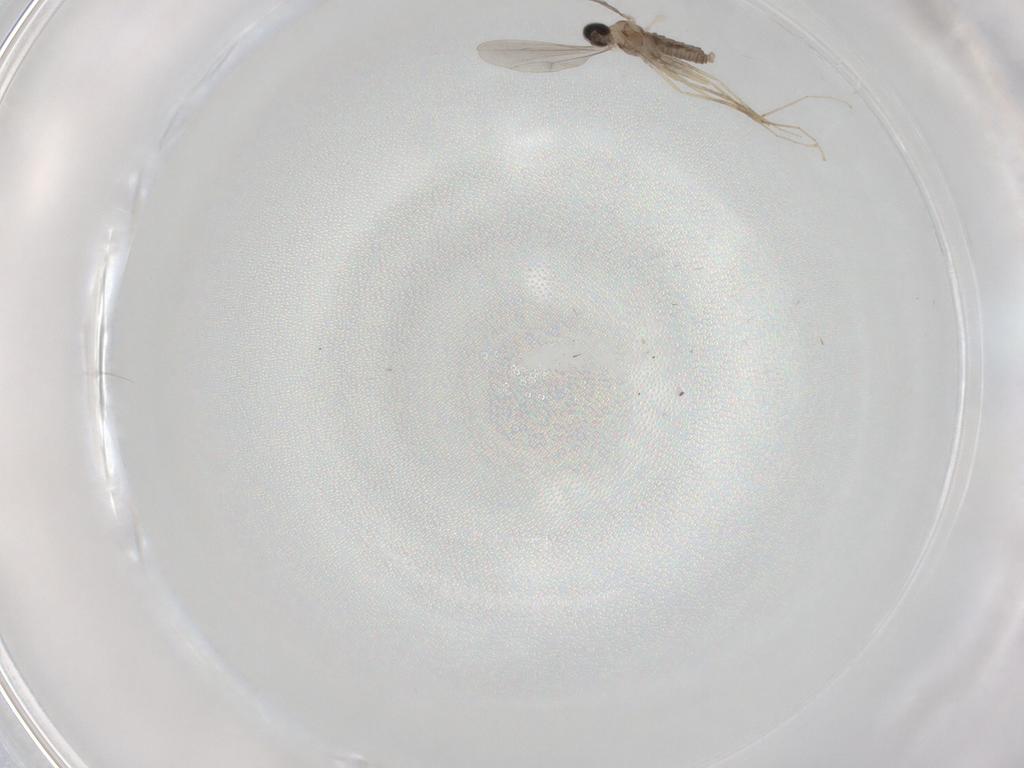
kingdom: Animalia
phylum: Arthropoda
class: Insecta
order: Diptera
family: Cecidomyiidae
